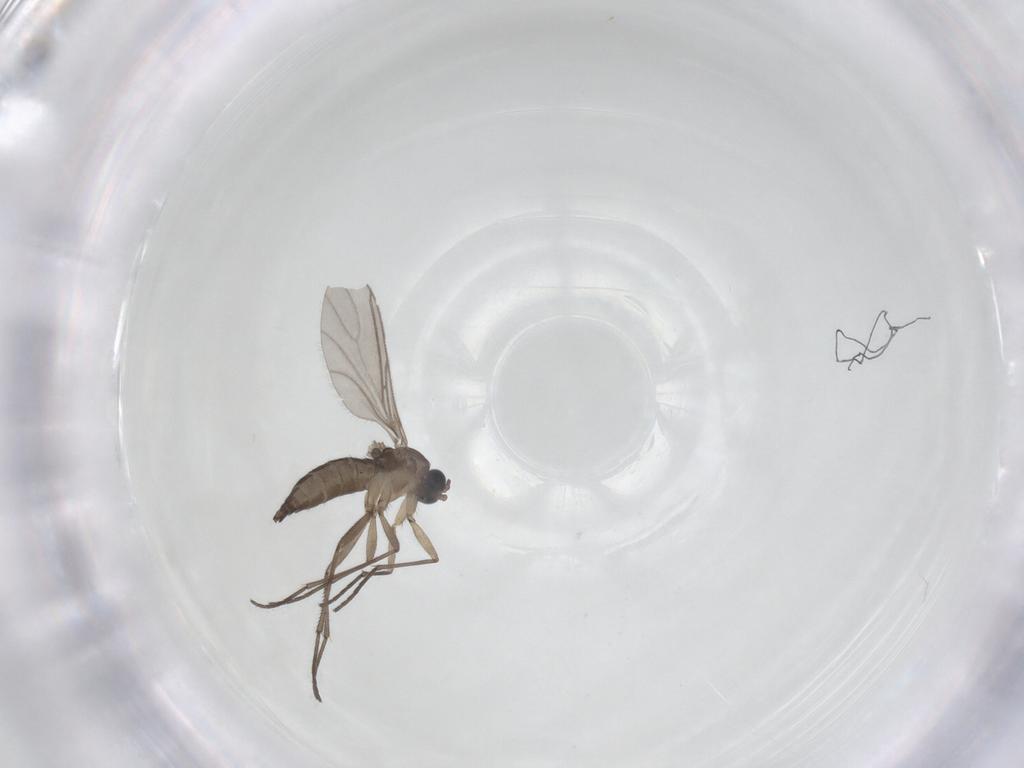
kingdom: Animalia
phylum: Arthropoda
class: Insecta
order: Diptera
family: Sciaridae
